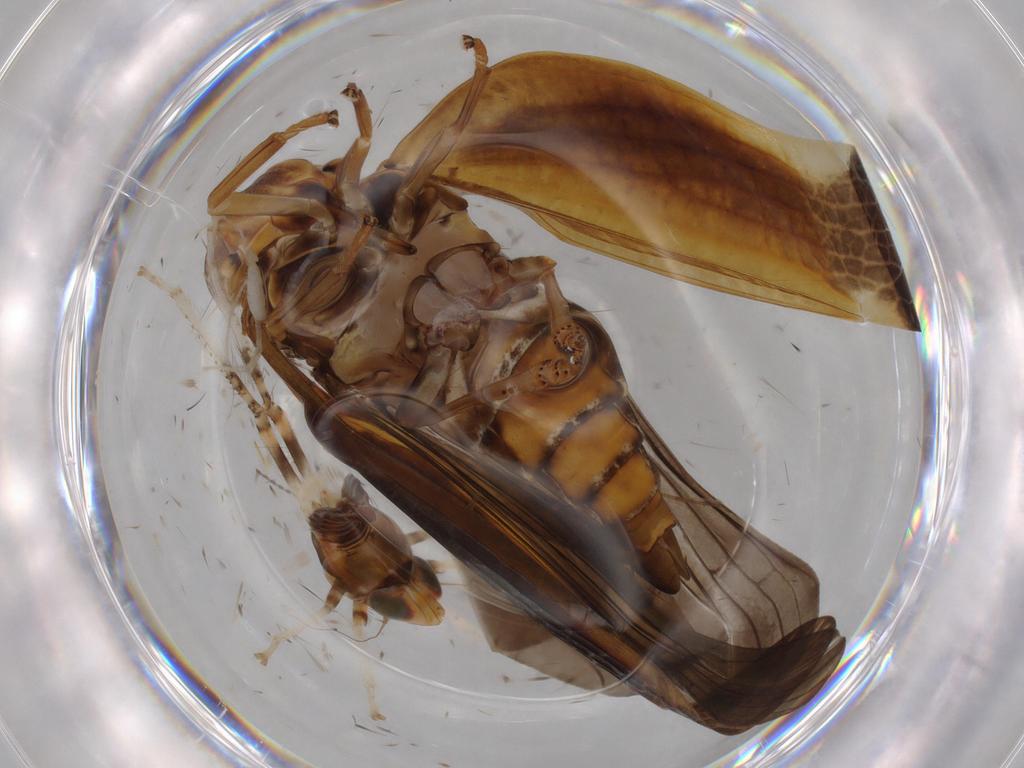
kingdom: Animalia
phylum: Arthropoda
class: Insecta
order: Hemiptera
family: Cicadellidae
